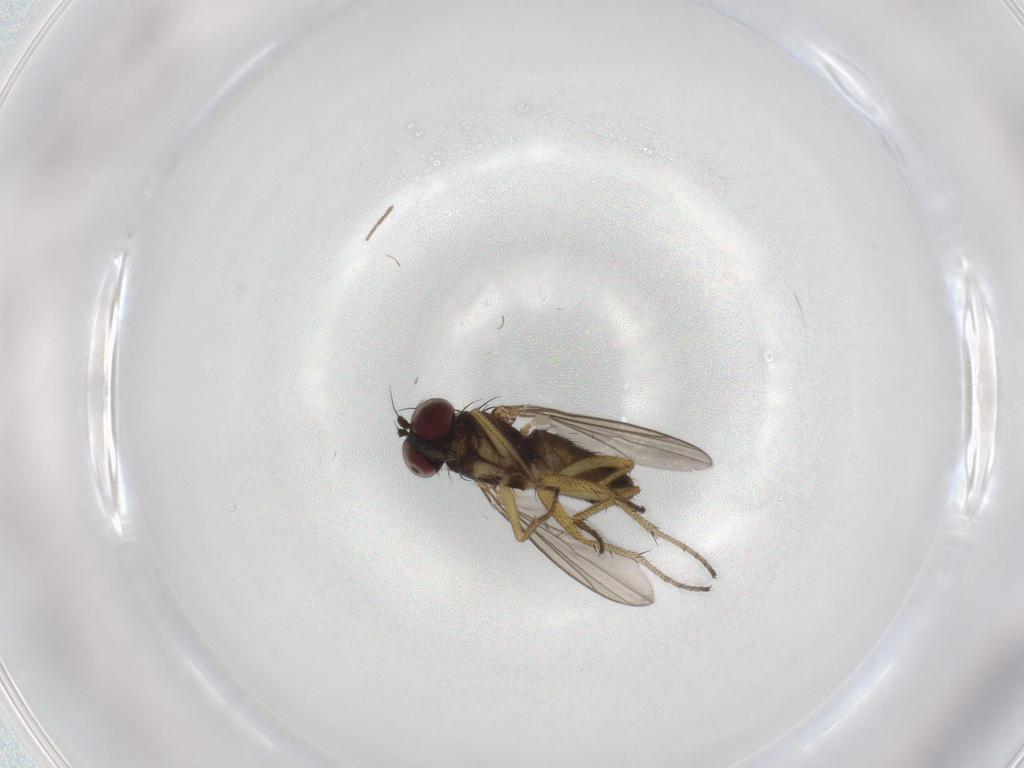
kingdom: Animalia
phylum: Arthropoda
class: Insecta
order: Diptera
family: Dolichopodidae
